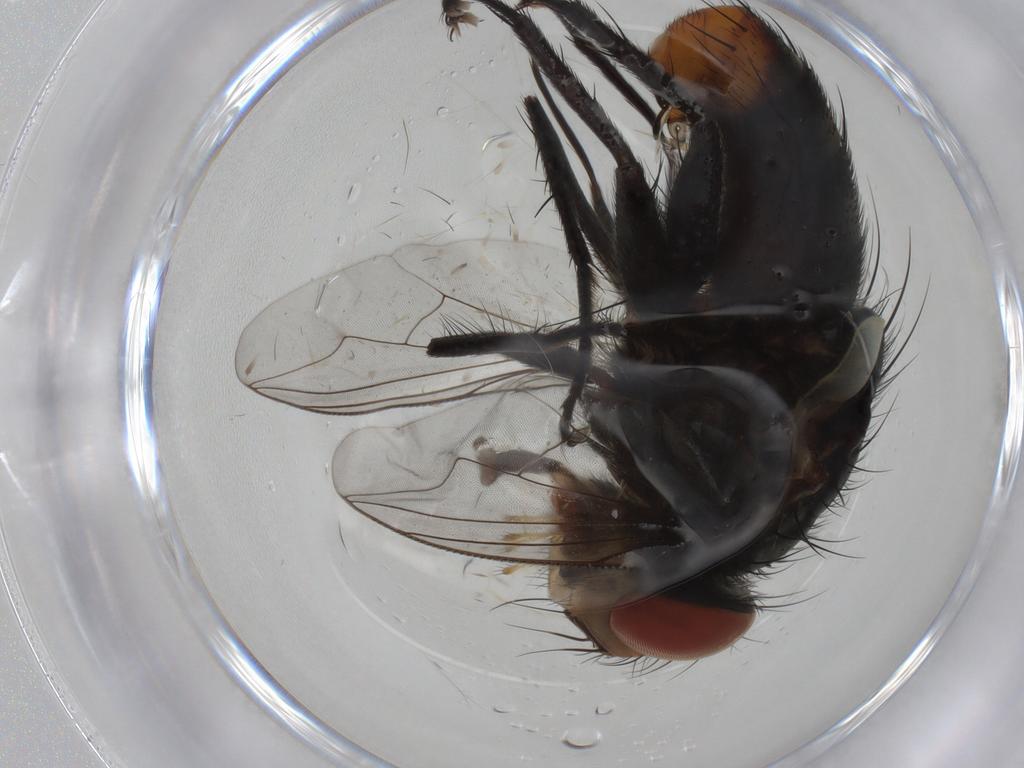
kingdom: Animalia
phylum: Arthropoda
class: Insecta
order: Diptera
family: Sarcophagidae
